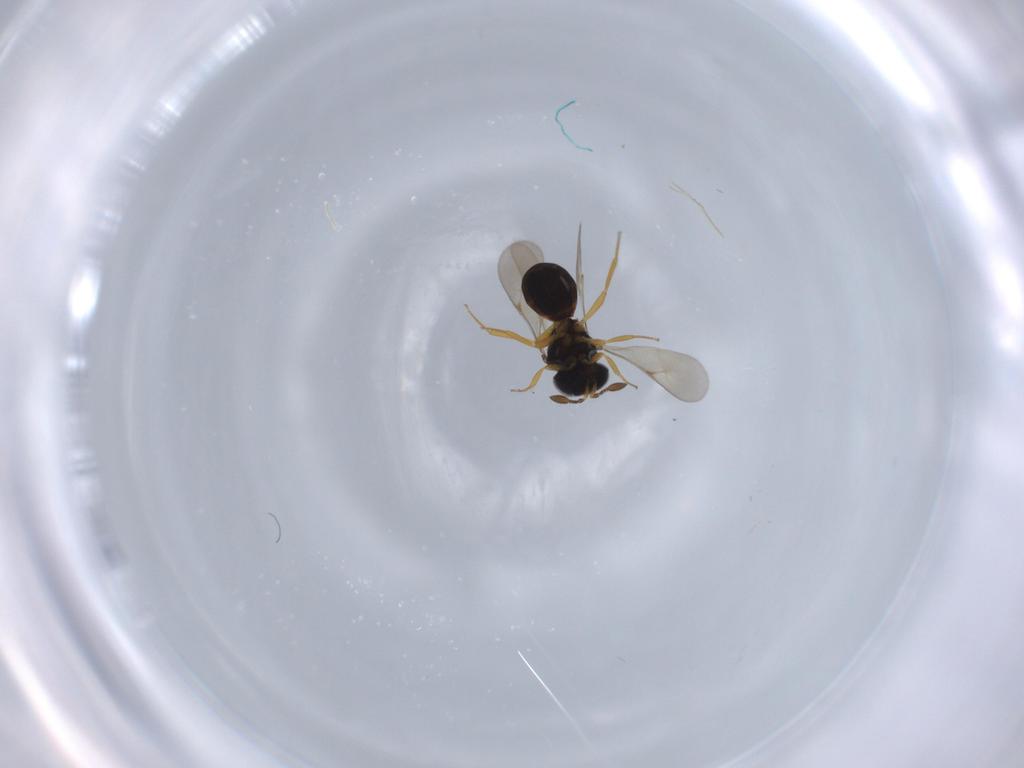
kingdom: Animalia
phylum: Arthropoda
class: Insecta
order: Hymenoptera
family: Scelionidae
